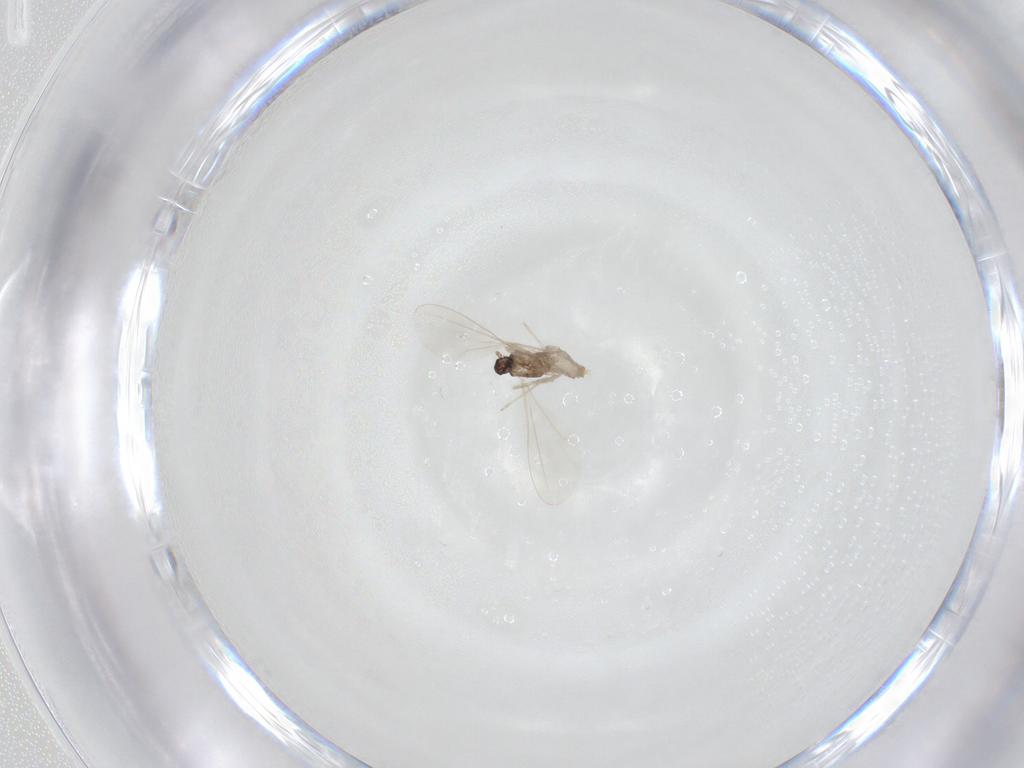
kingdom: Animalia
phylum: Arthropoda
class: Insecta
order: Diptera
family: Cecidomyiidae
